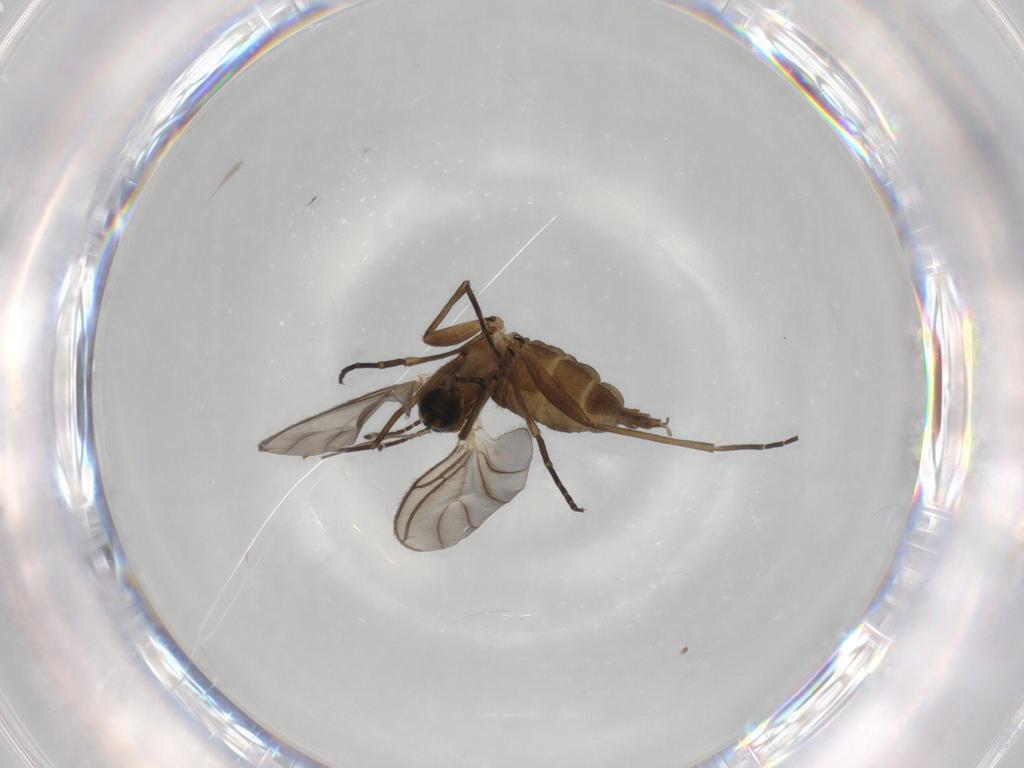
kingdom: Animalia
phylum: Arthropoda
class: Insecta
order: Diptera
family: Chironomidae
